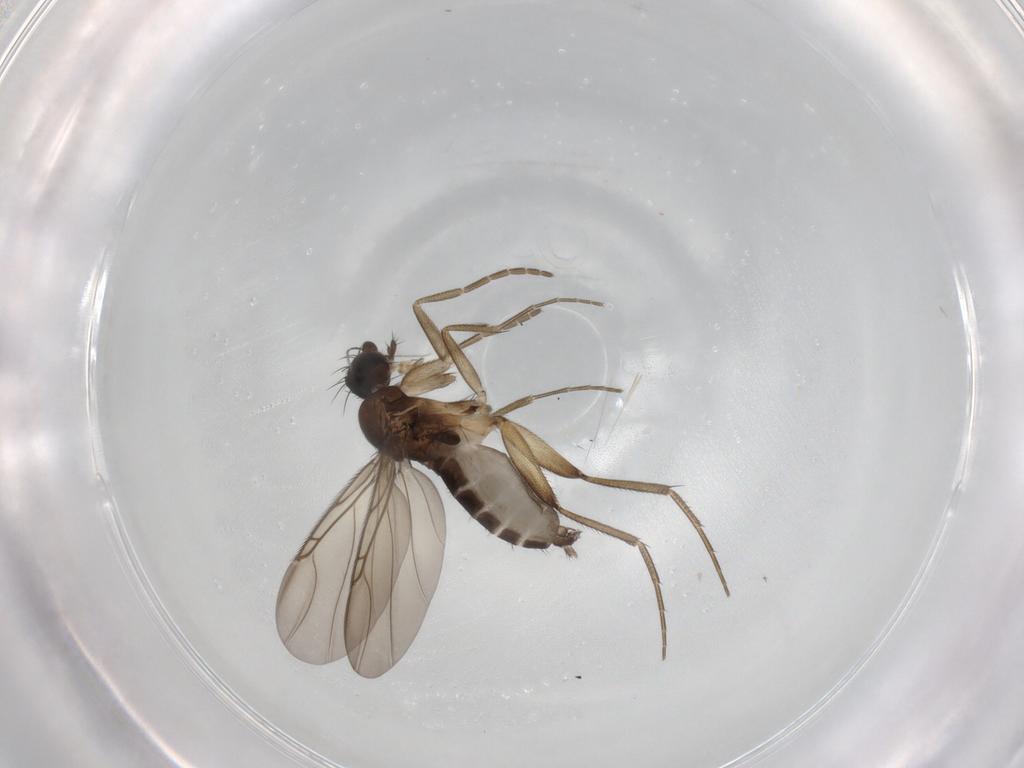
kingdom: Animalia
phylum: Arthropoda
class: Insecta
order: Diptera
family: Phoridae
